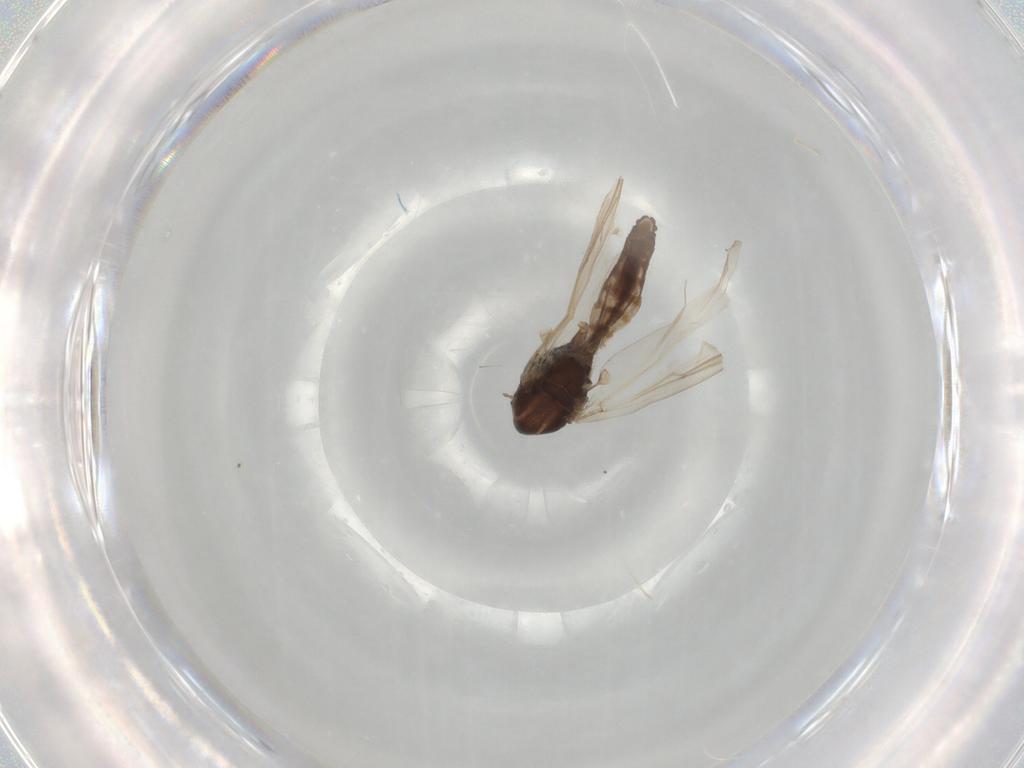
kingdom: Animalia
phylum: Arthropoda
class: Insecta
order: Diptera
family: Chironomidae
